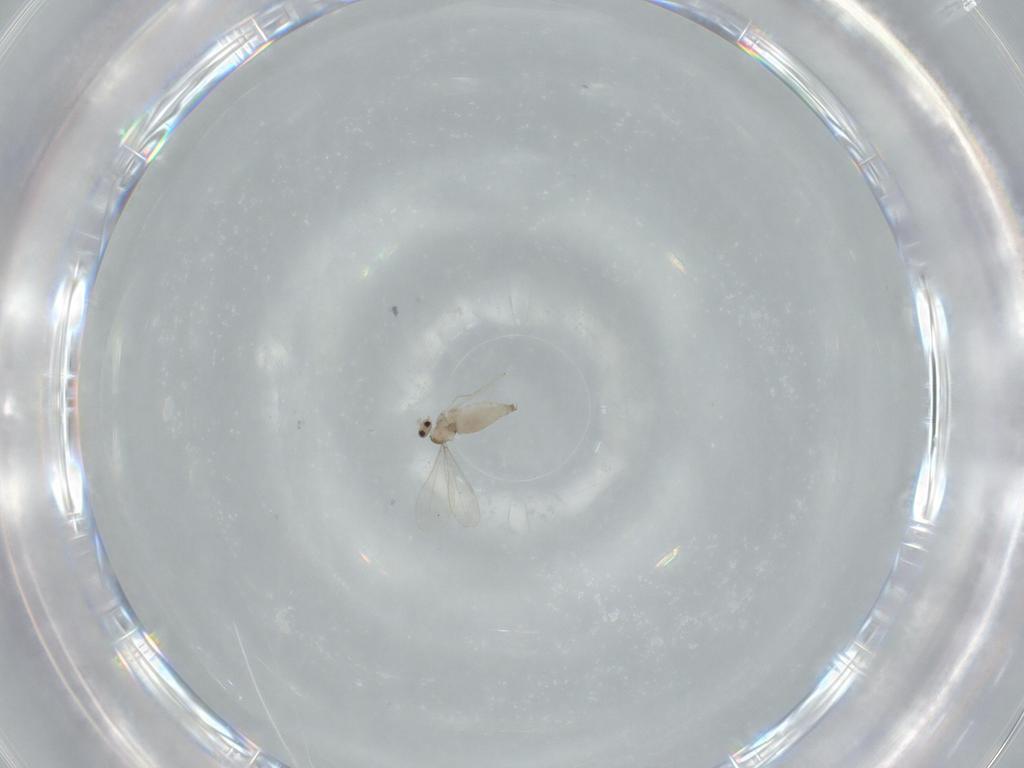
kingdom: Animalia
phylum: Arthropoda
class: Insecta
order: Diptera
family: Cecidomyiidae
